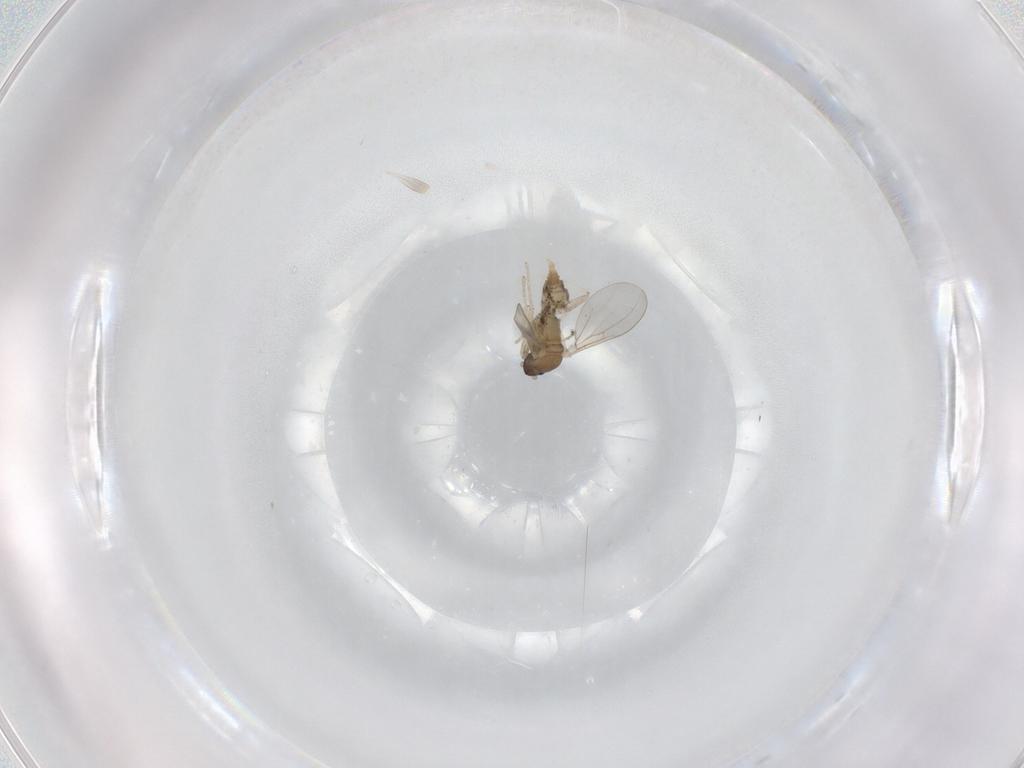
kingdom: Animalia
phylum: Arthropoda
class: Insecta
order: Diptera
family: Cecidomyiidae
